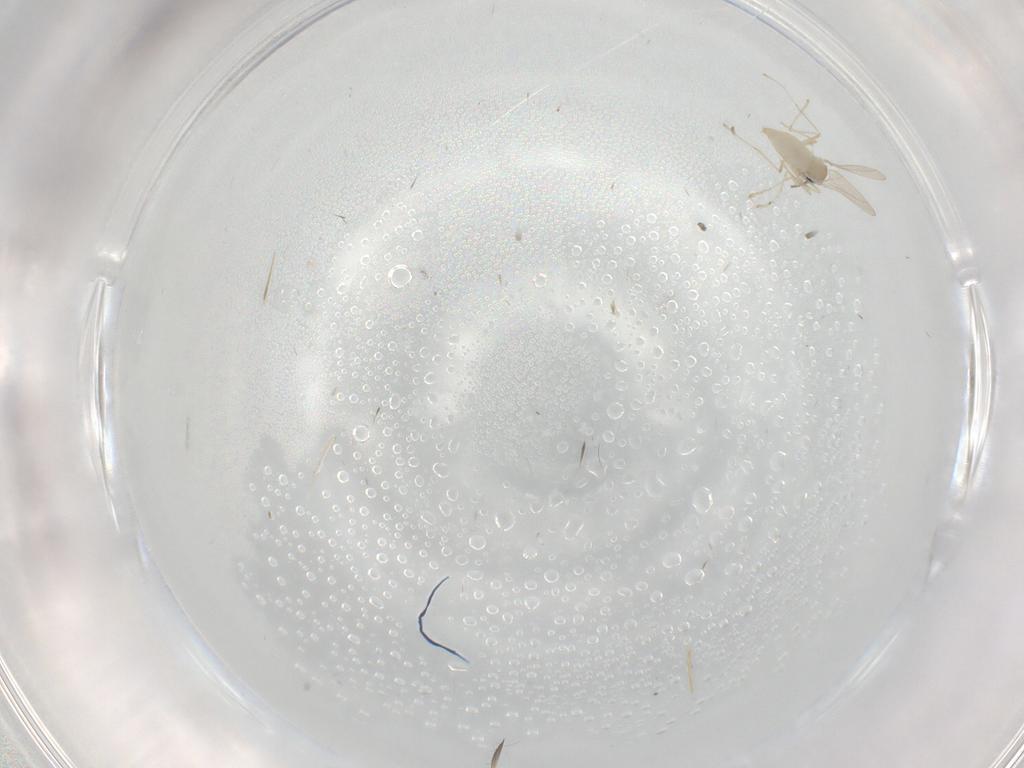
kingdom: Animalia
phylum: Arthropoda
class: Insecta
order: Diptera
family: Cecidomyiidae
